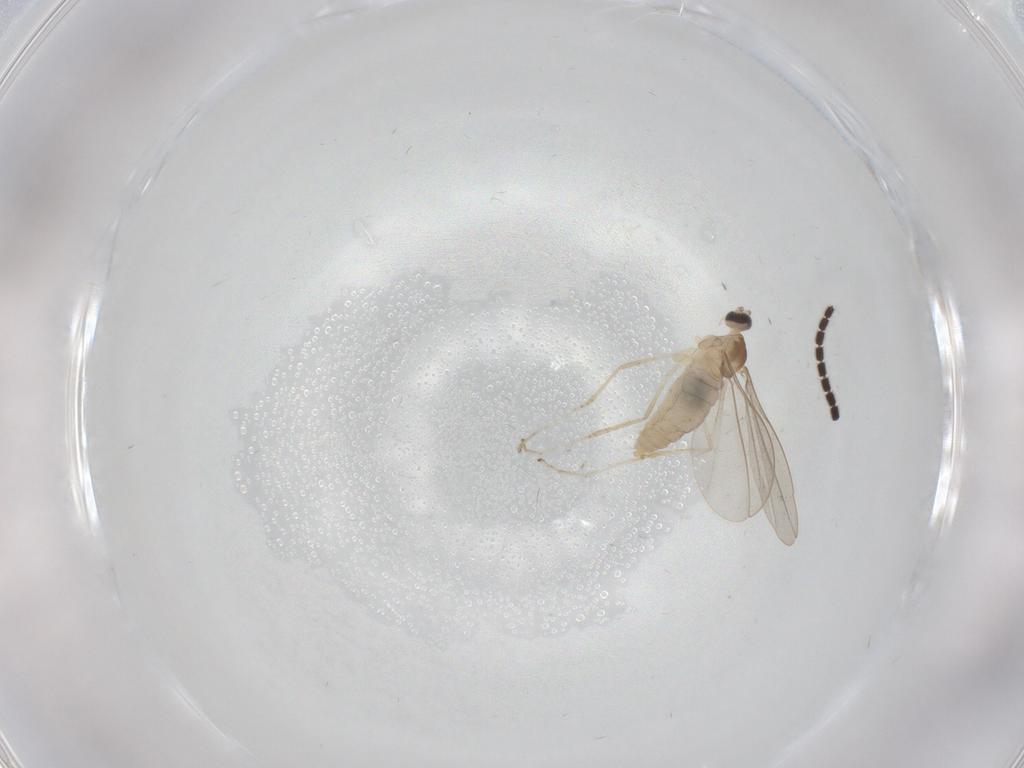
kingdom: Animalia
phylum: Arthropoda
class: Insecta
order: Diptera
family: Cecidomyiidae
